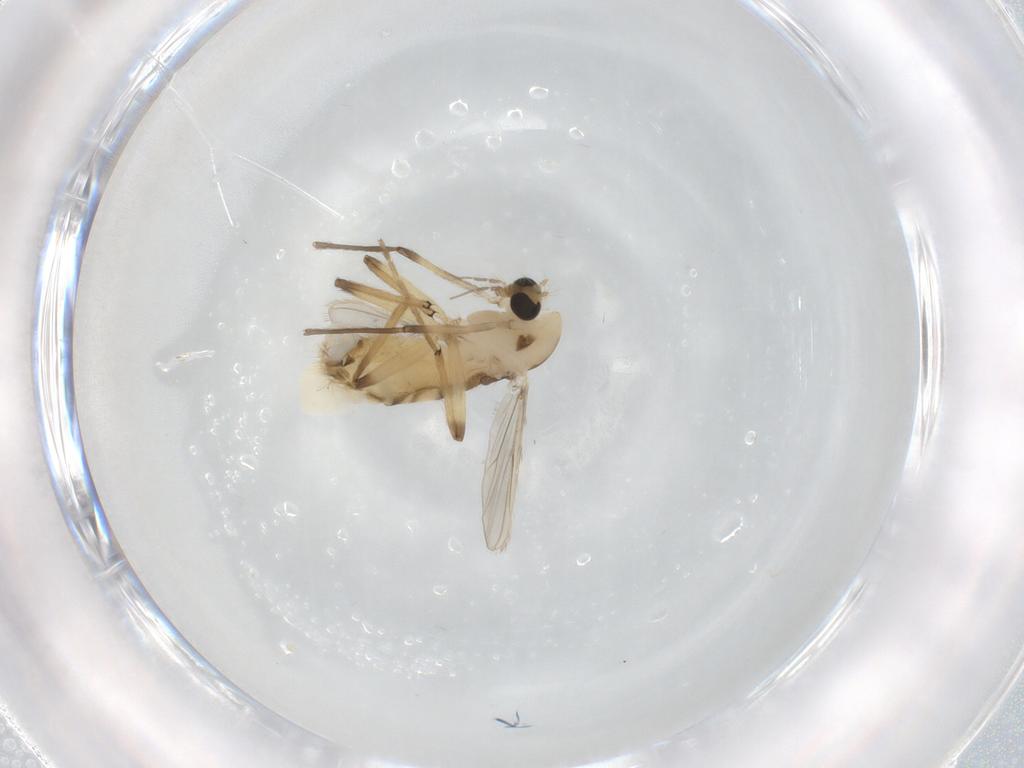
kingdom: Animalia
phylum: Arthropoda
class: Insecta
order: Diptera
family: Chironomidae
